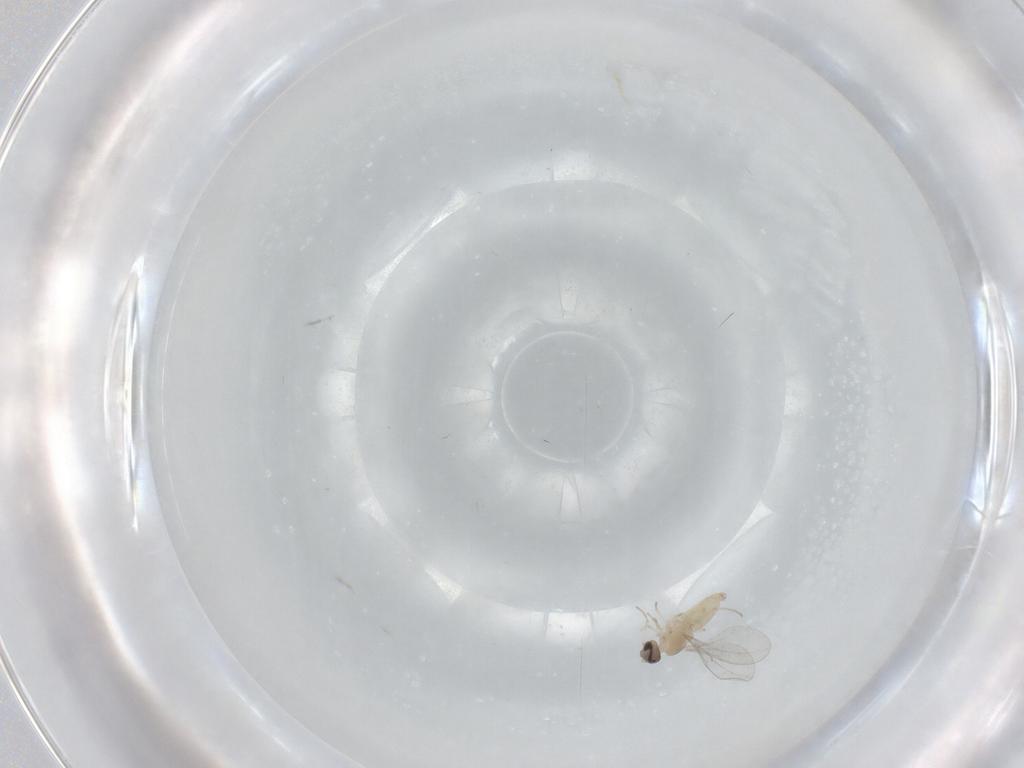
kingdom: Animalia
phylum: Arthropoda
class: Insecta
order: Diptera
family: Cecidomyiidae
